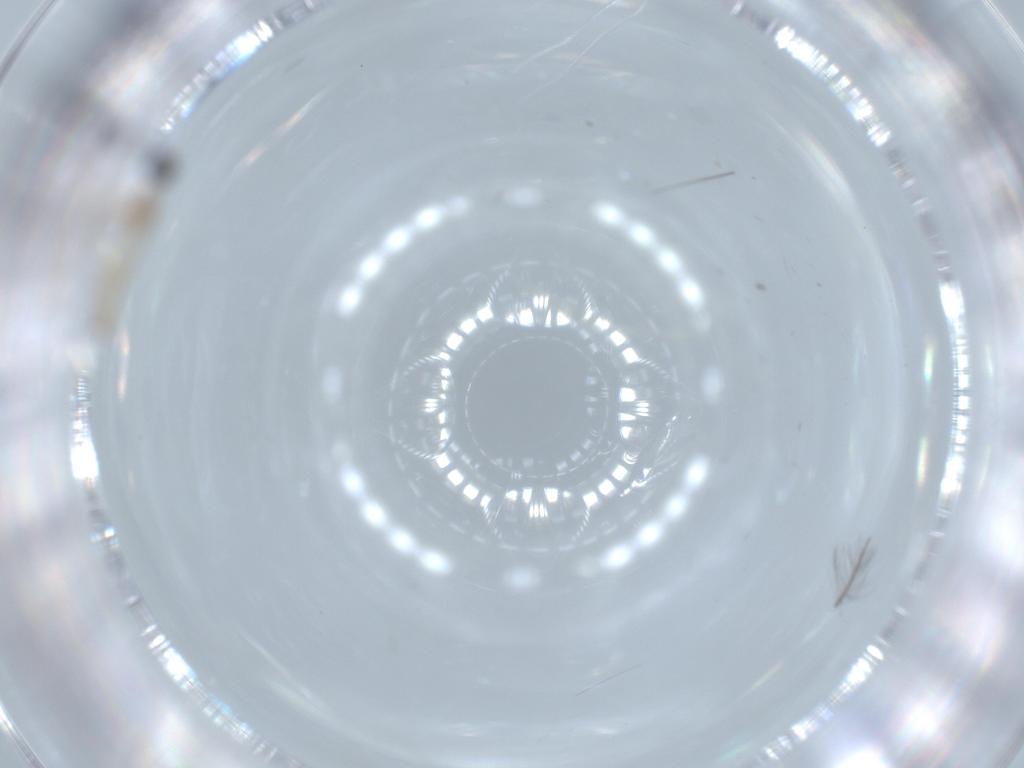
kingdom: Animalia
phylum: Arthropoda
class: Insecta
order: Diptera
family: Cecidomyiidae
